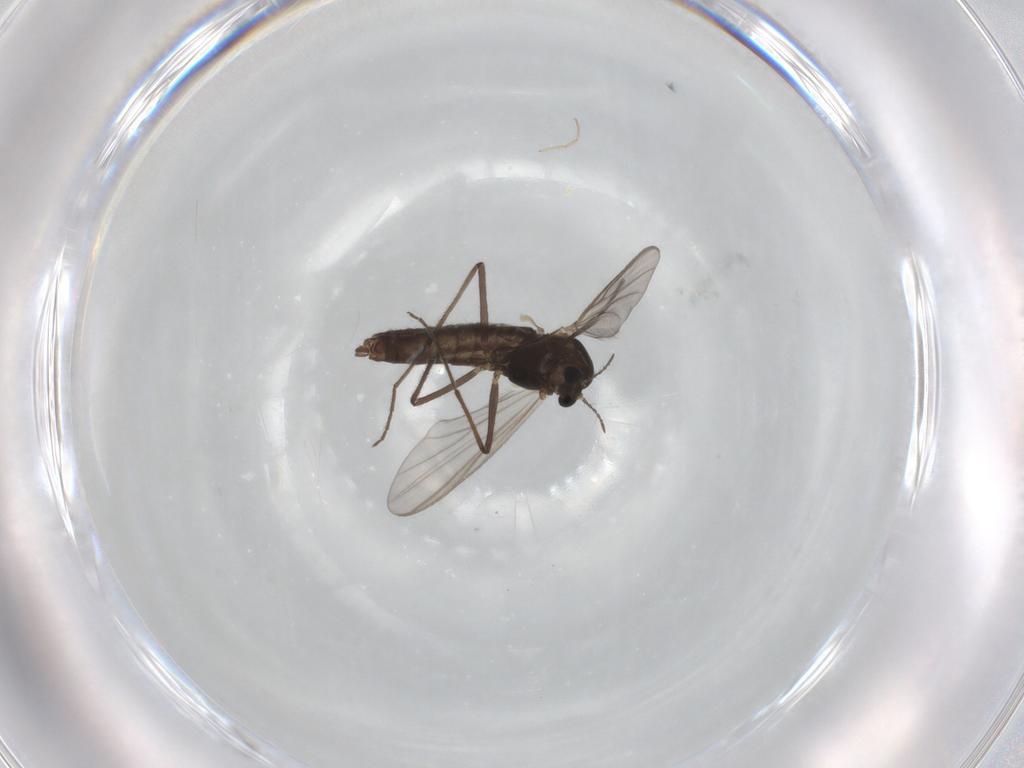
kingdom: Animalia
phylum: Arthropoda
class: Insecta
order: Diptera
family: Chironomidae
